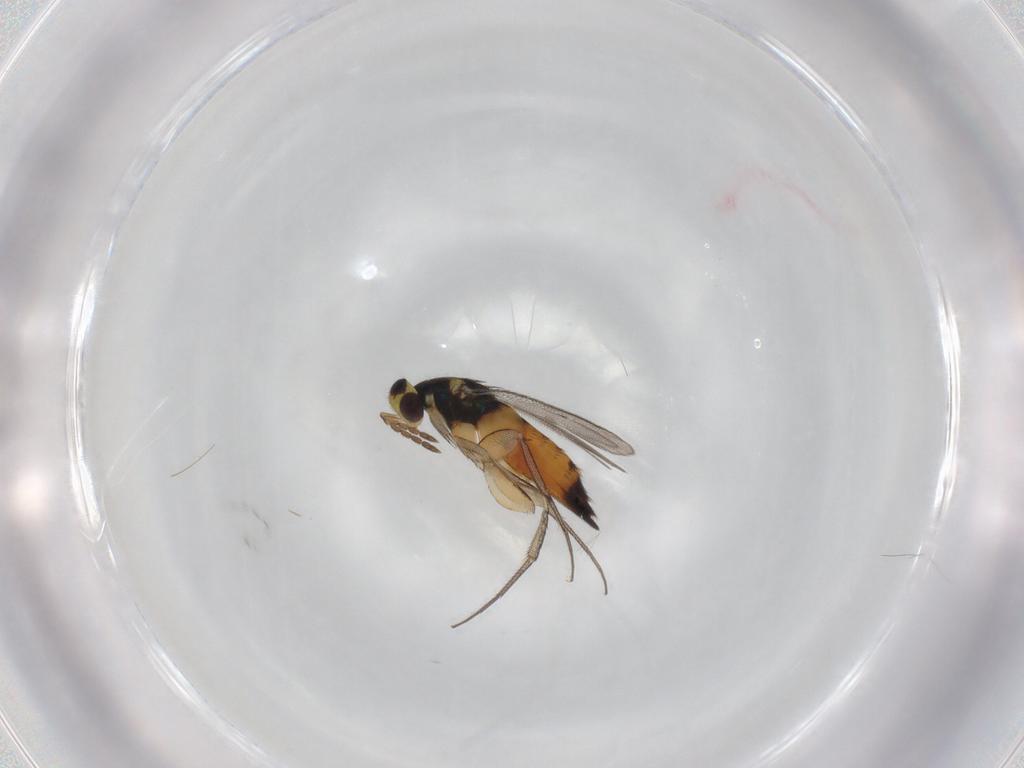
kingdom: Animalia
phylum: Arthropoda
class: Insecta
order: Hymenoptera
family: Eulophidae
